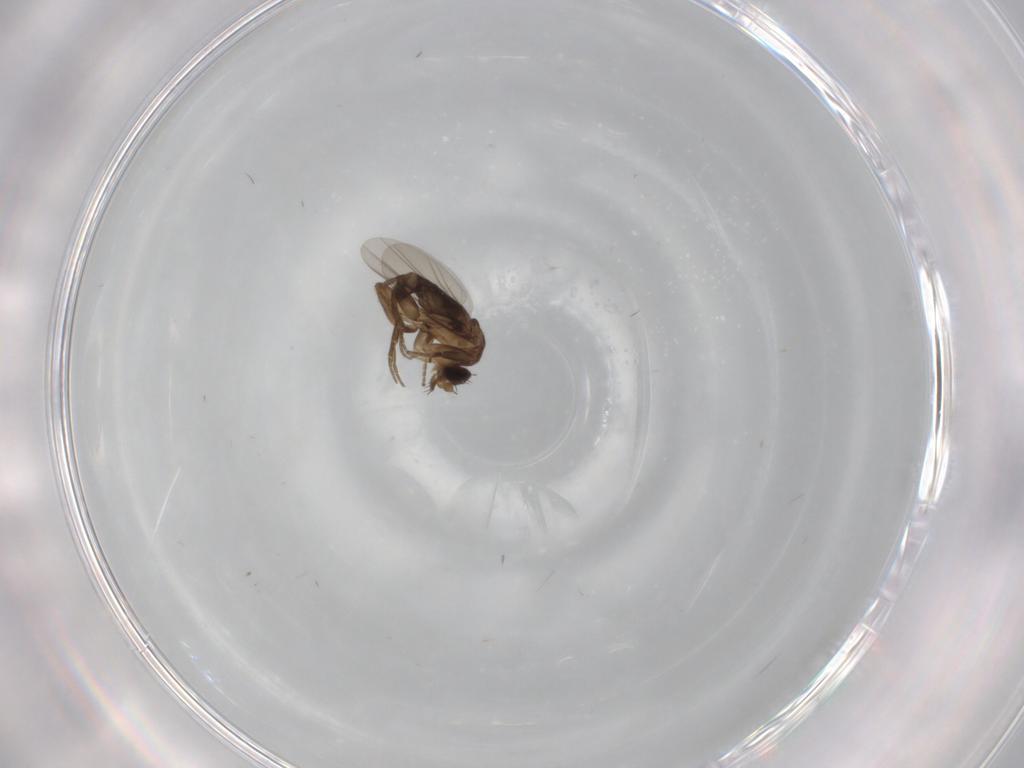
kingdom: Animalia
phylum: Arthropoda
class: Insecta
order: Diptera
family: Phoridae
